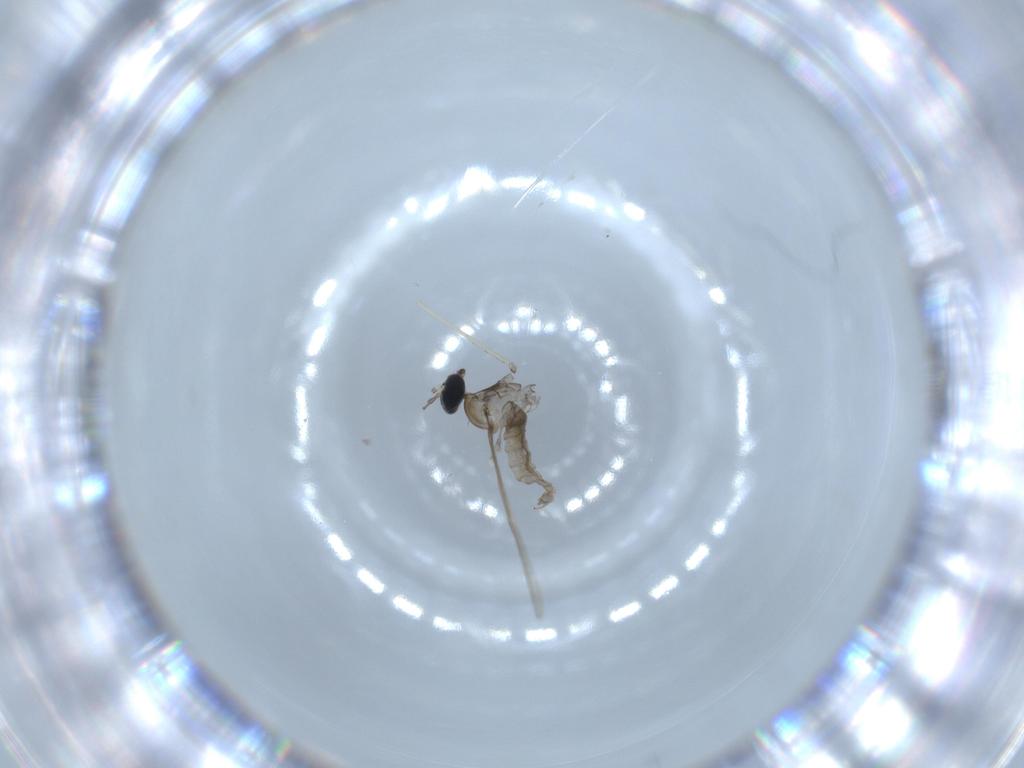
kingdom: Animalia
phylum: Arthropoda
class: Insecta
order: Diptera
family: Cecidomyiidae
